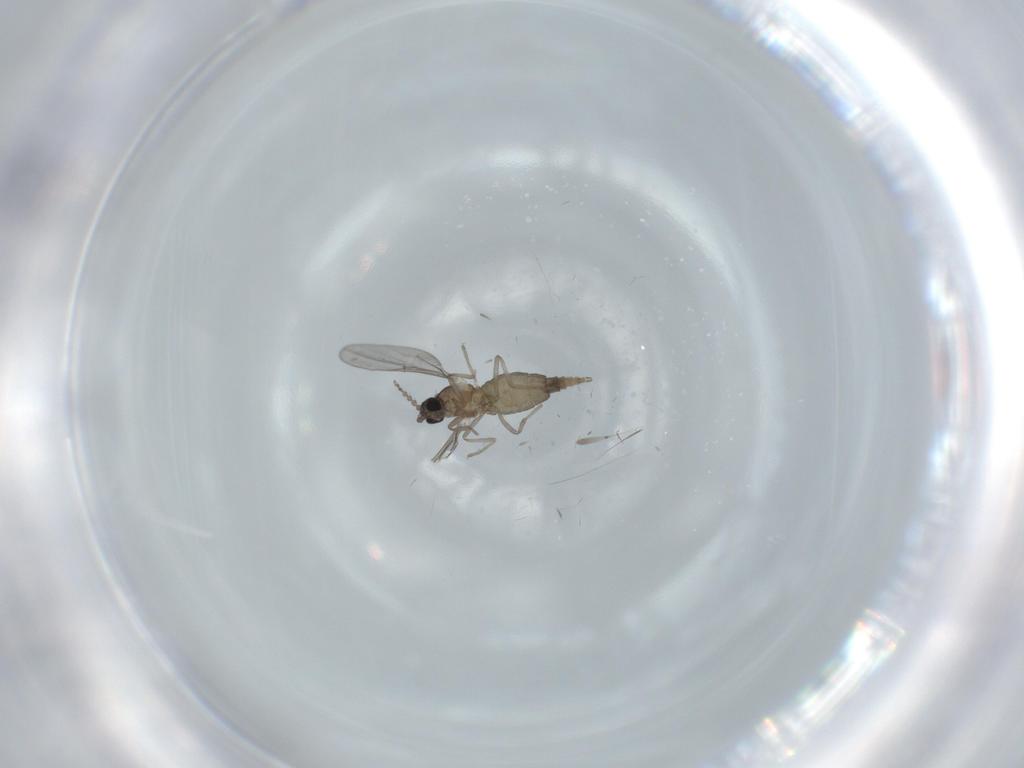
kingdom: Animalia
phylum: Arthropoda
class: Insecta
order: Diptera
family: Cecidomyiidae
